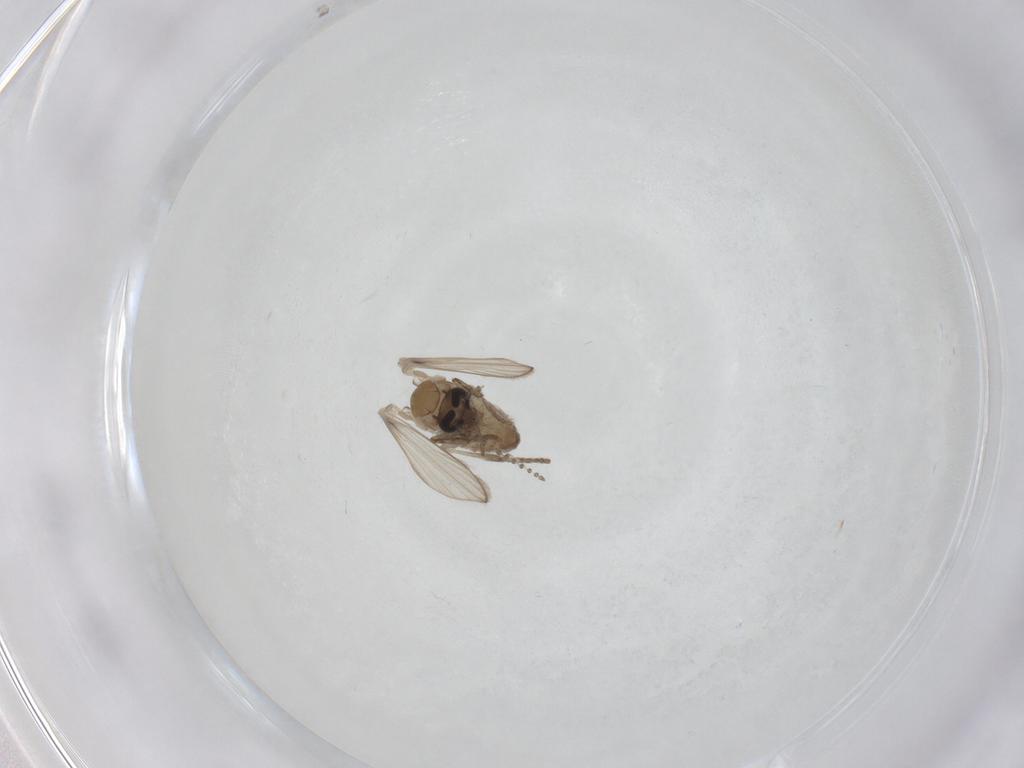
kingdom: Animalia
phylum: Arthropoda
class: Insecta
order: Diptera
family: Psychodidae
